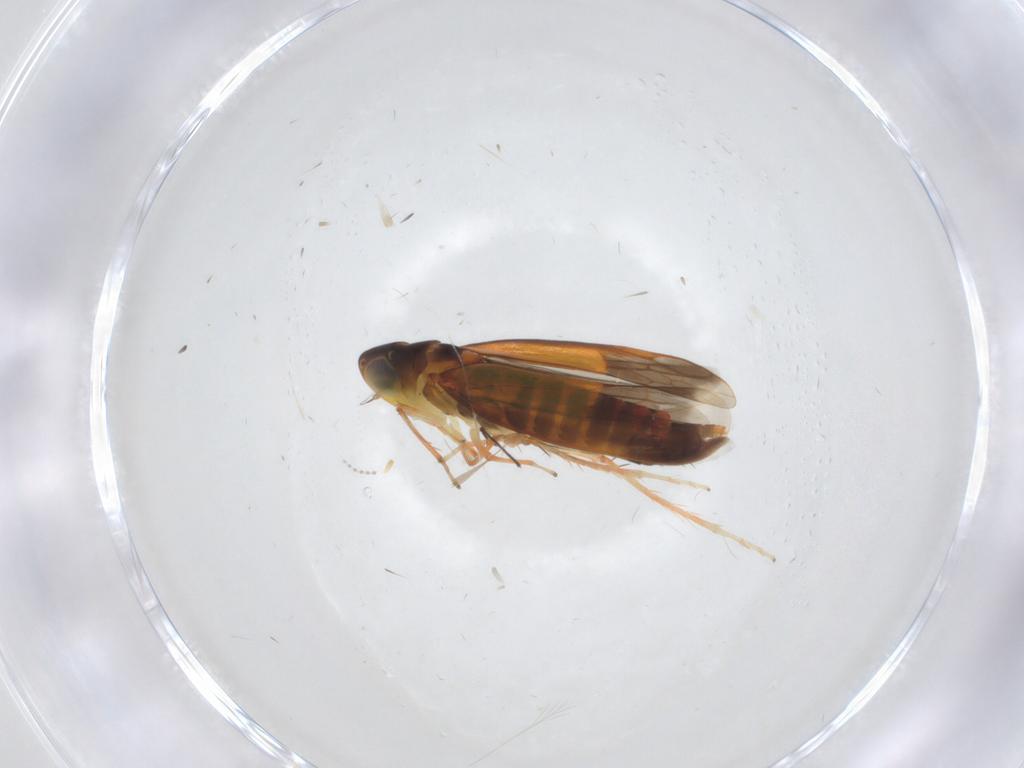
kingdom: Animalia
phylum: Arthropoda
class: Insecta
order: Hemiptera
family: Cicadellidae
